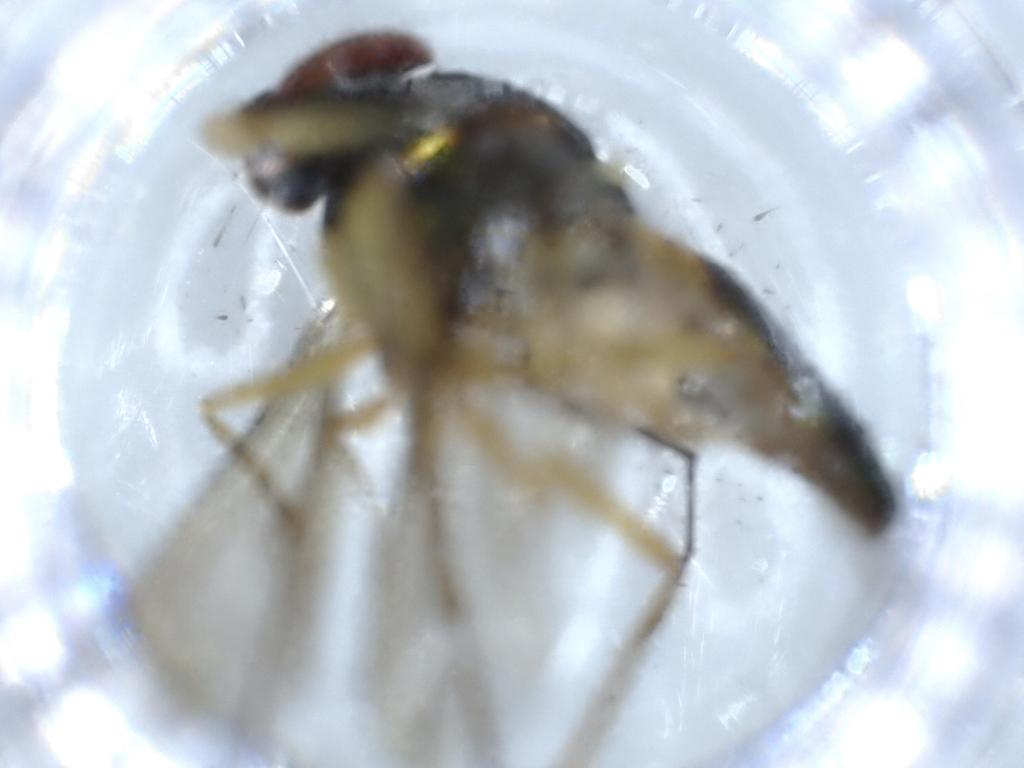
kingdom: Animalia
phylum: Arthropoda
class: Insecta
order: Diptera
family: Dolichopodidae
